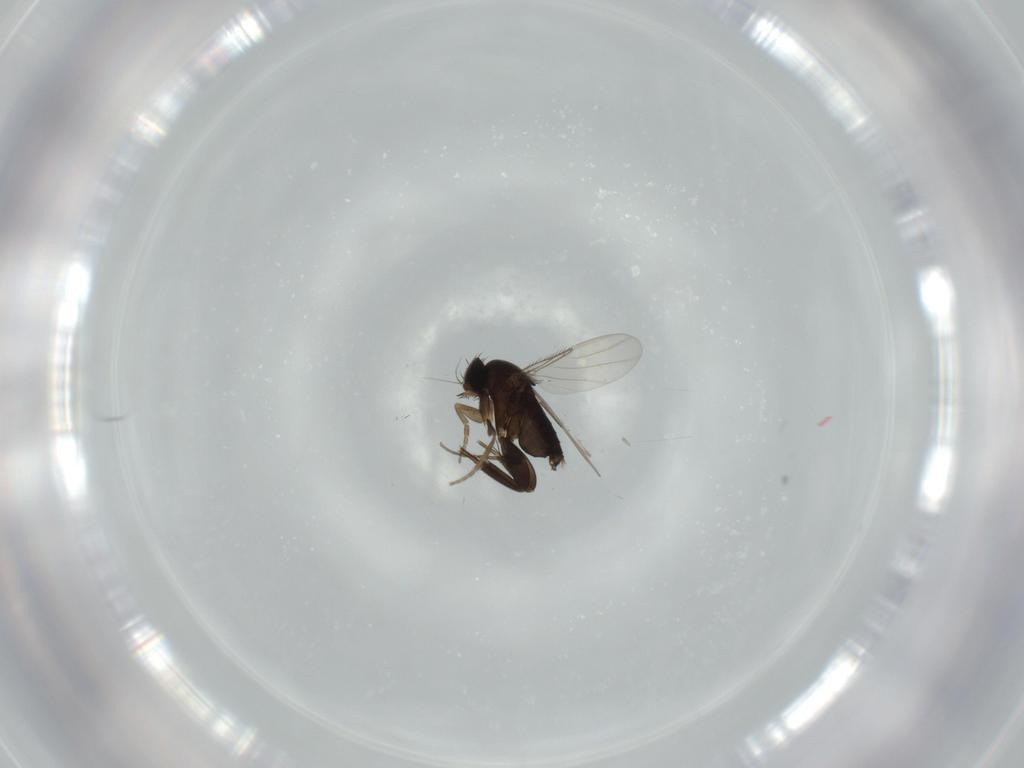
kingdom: Animalia
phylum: Arthropoda
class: Insecta
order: Diptera
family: Phoridae
